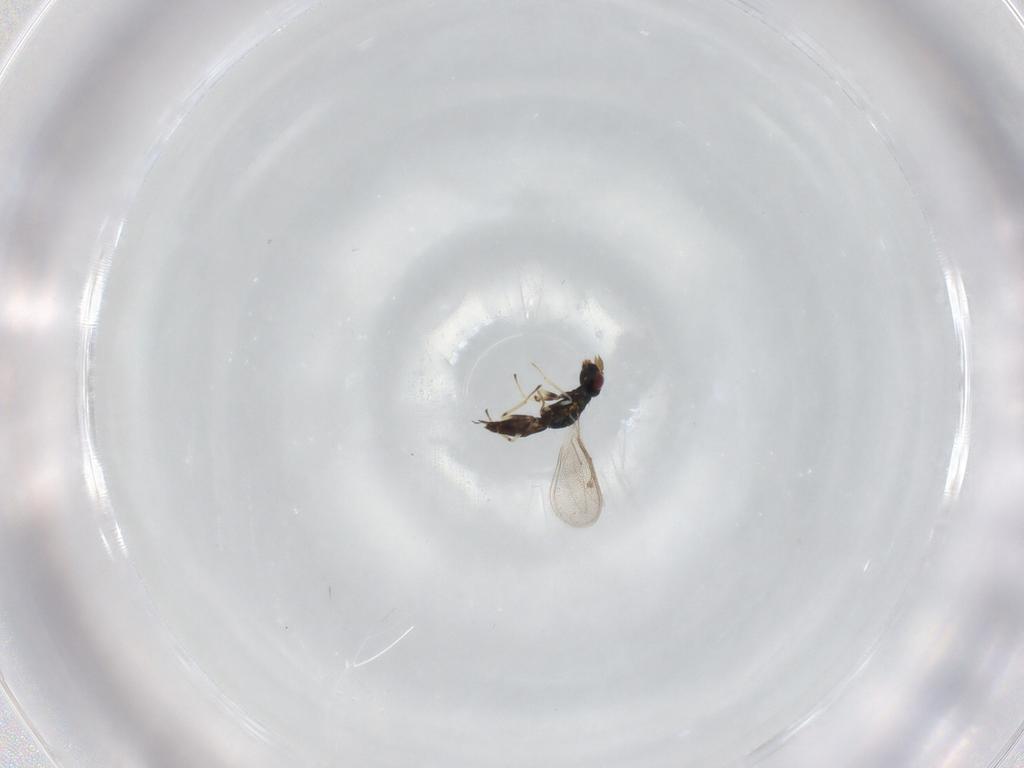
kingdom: Animalia
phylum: Arthropoda
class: Insecta
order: Hymenoptera
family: Eulophidae
